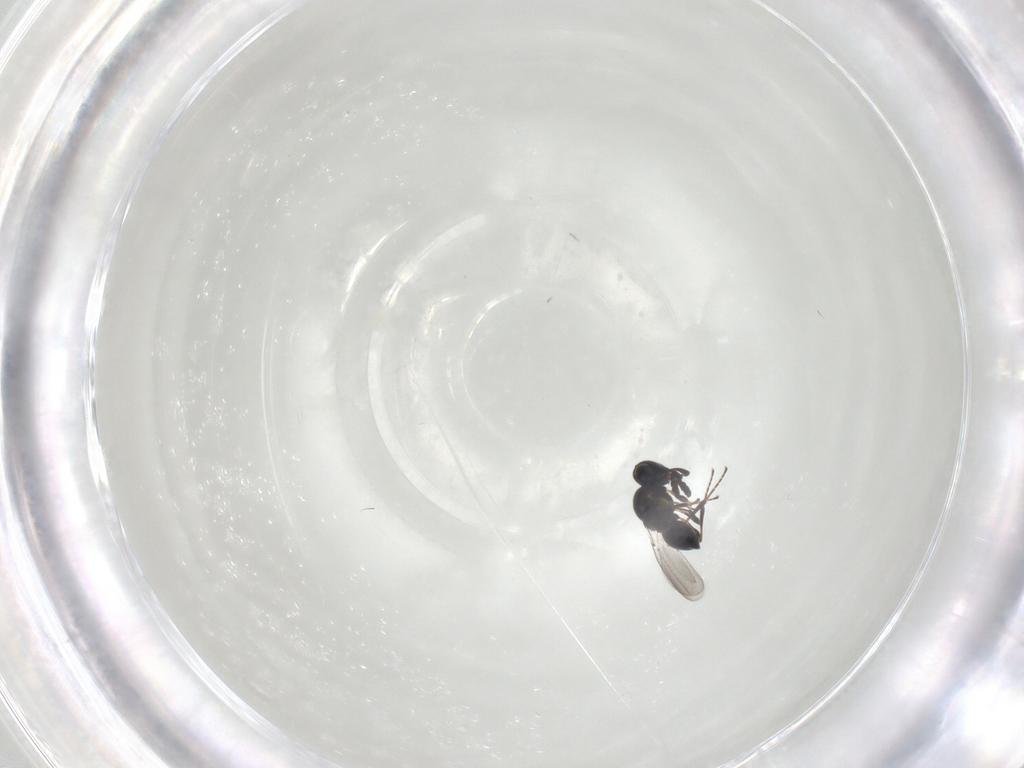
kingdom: Animalia
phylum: Arthropoda
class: Insecta
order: Hymenoptera
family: Platygastridae
